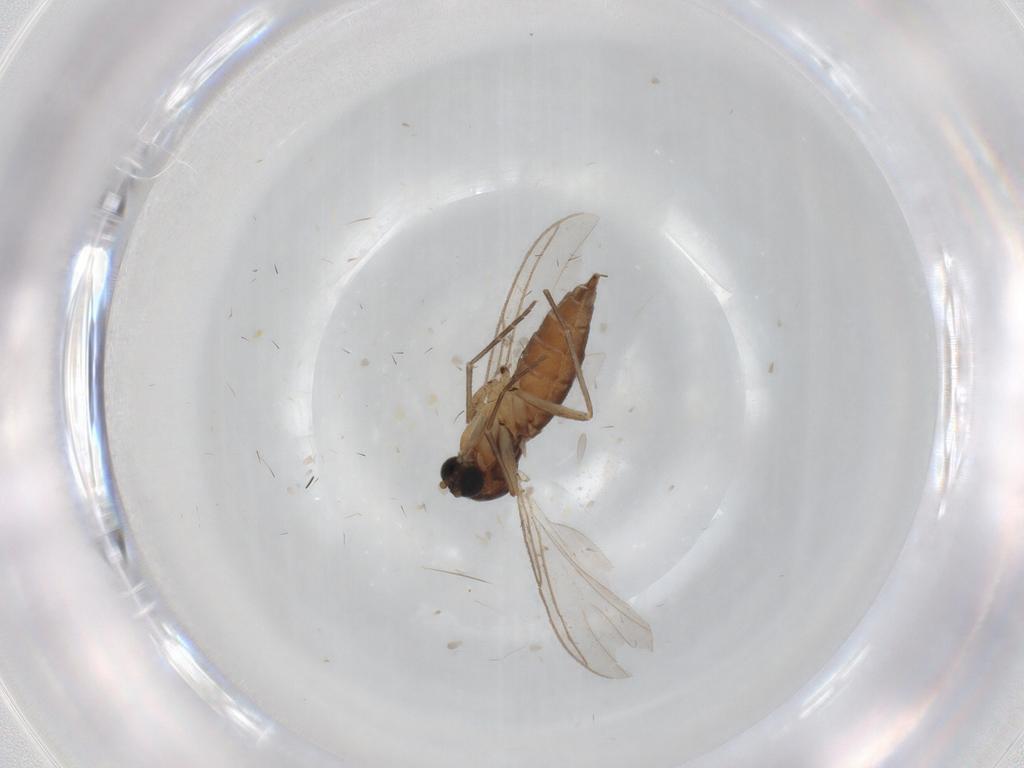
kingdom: Animalia
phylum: Arthropoda
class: Insecta
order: Diptera
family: Sciaridae
